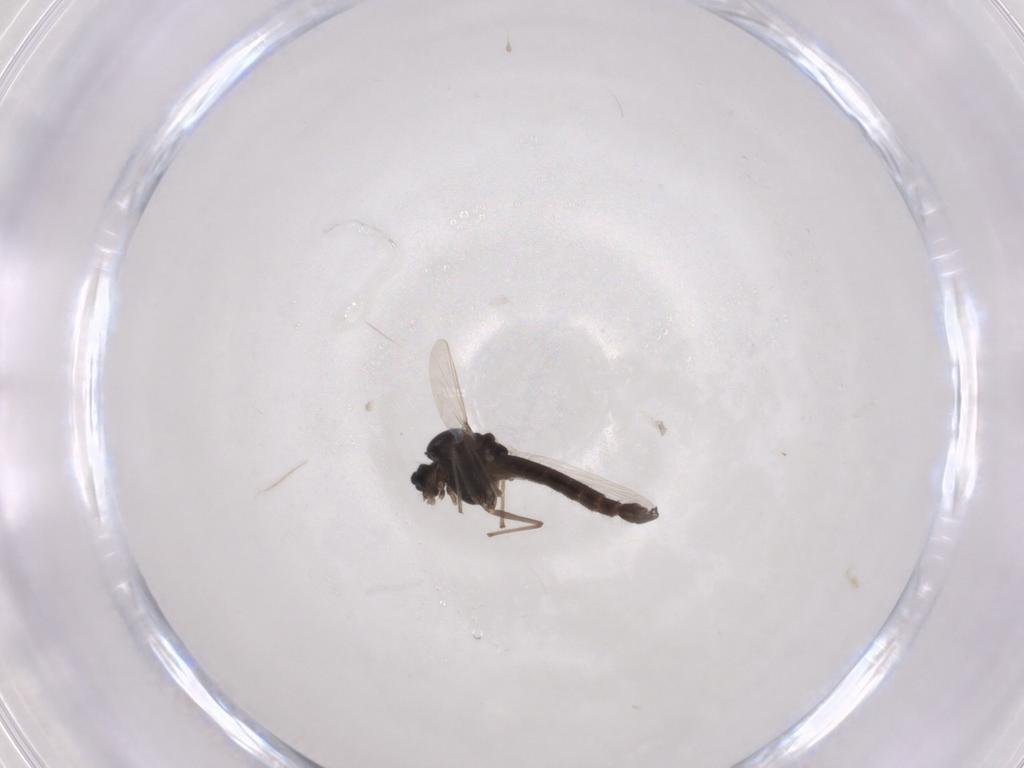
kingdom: Animalia
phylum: Arthropoda
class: Insecta
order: Diptera
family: Chironomidae
